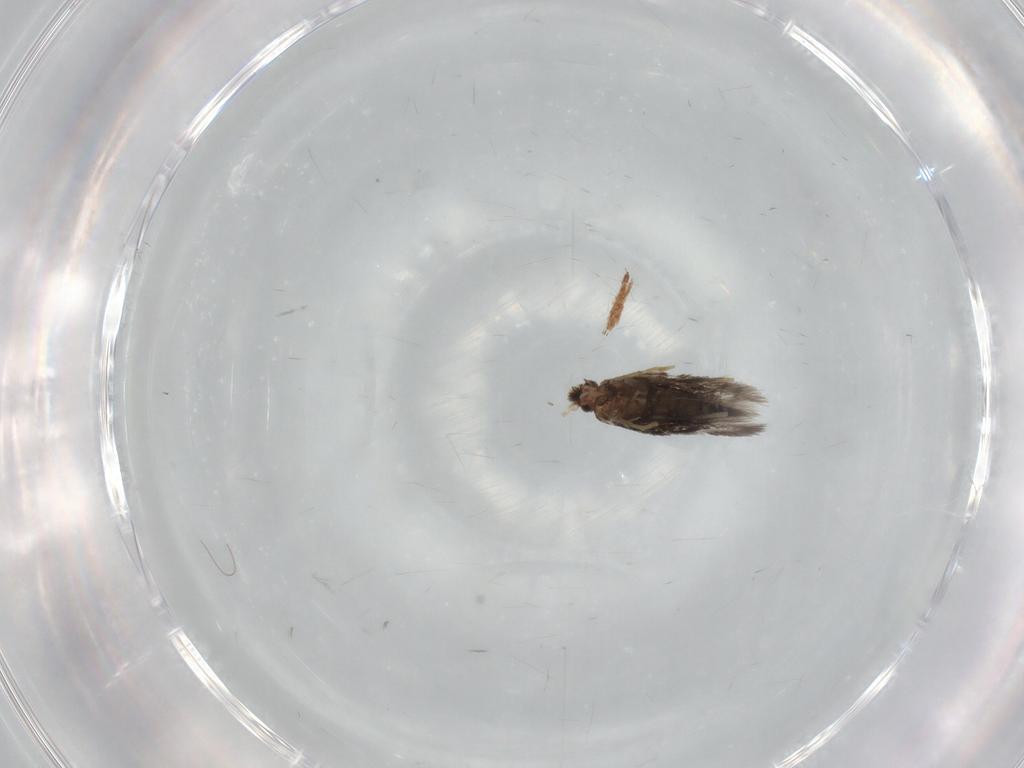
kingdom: Animalia
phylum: Arthropoda
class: Insecta
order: Lepidoptera
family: Nepticulidae
